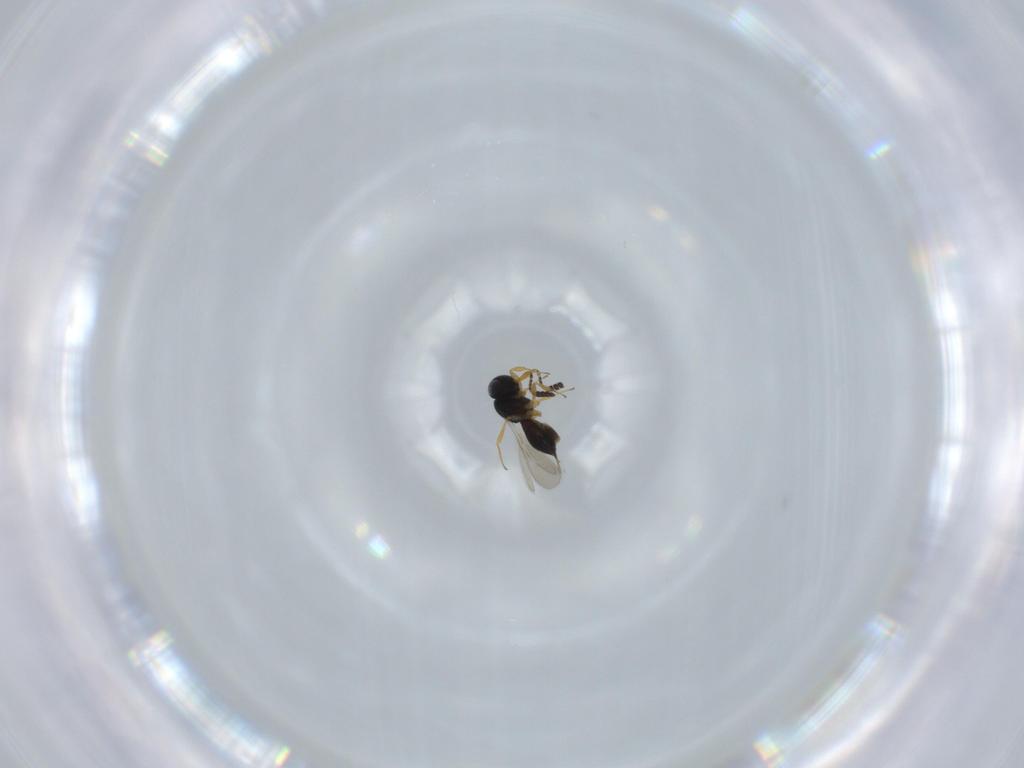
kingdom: Animalia
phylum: Arthropoda
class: Insecta
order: Hymenoptera
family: Scelionidae
